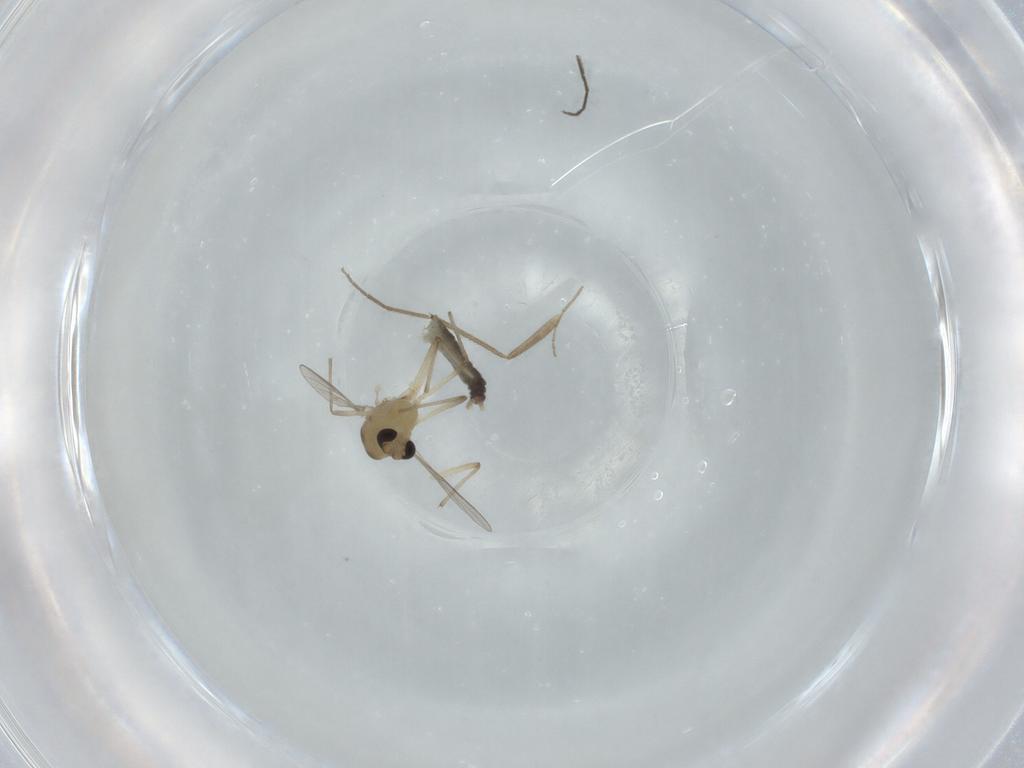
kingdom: Animalia
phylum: Arthropoda
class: Insecta
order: Diptera
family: Chironomidae
